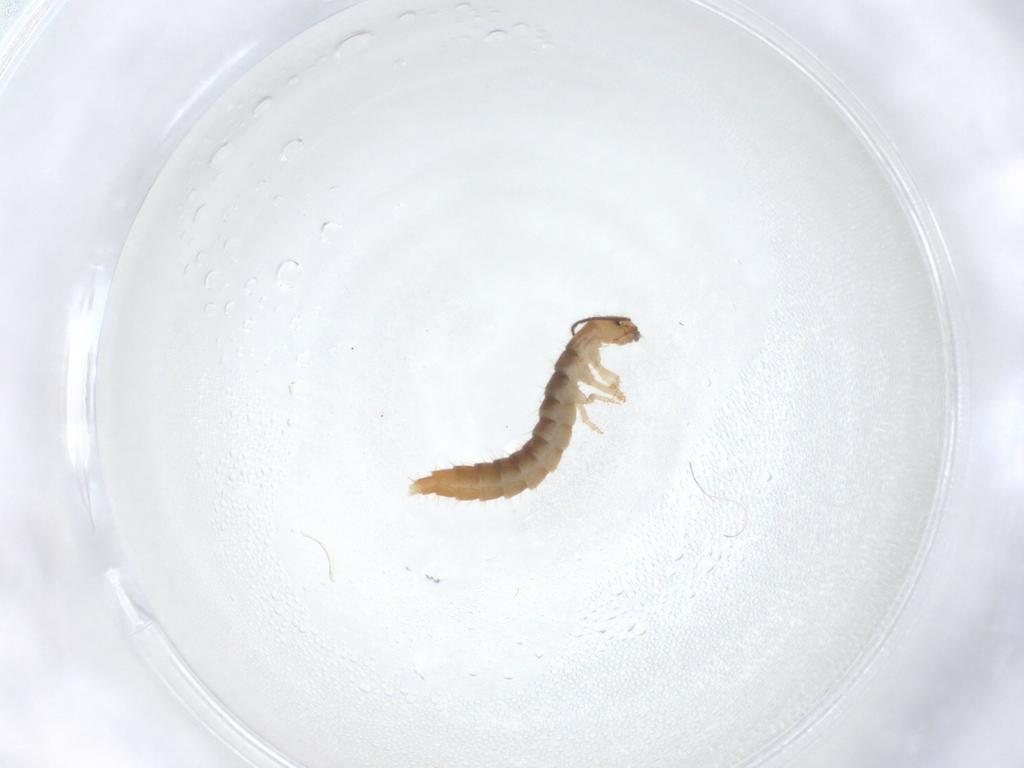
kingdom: Animalia
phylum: Arthropoda
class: Insecta
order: Coleoptera
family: Staphylinidae
